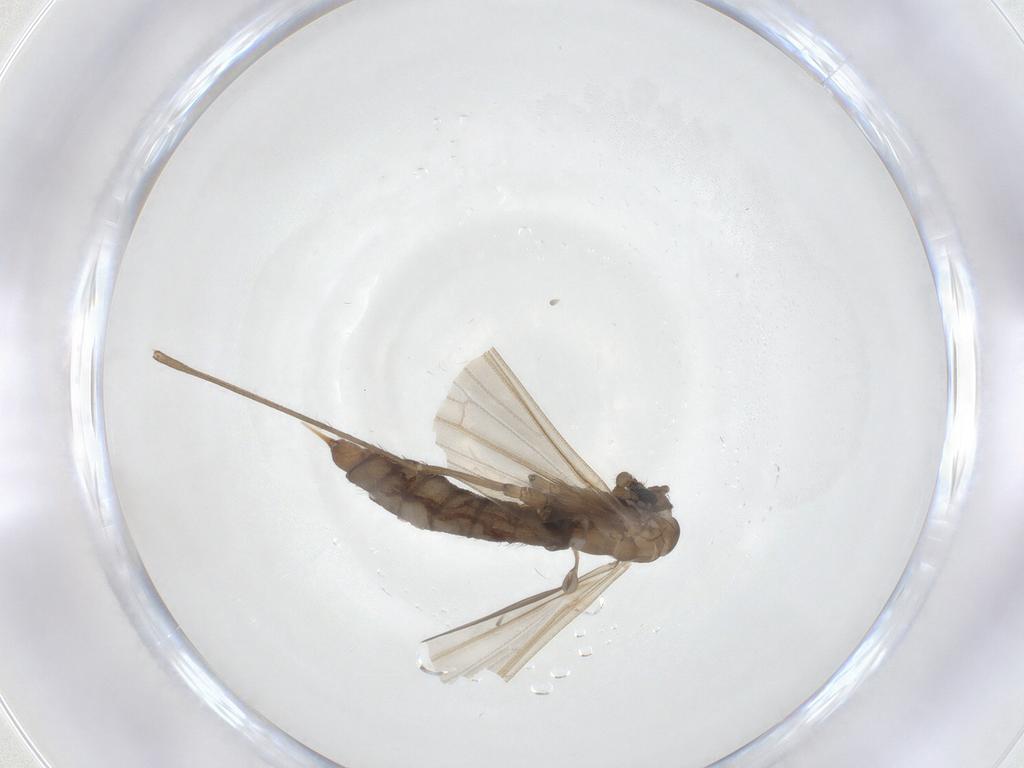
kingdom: Animalia
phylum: Arthropoda
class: Insecta
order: Diptera
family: Limoniidae
